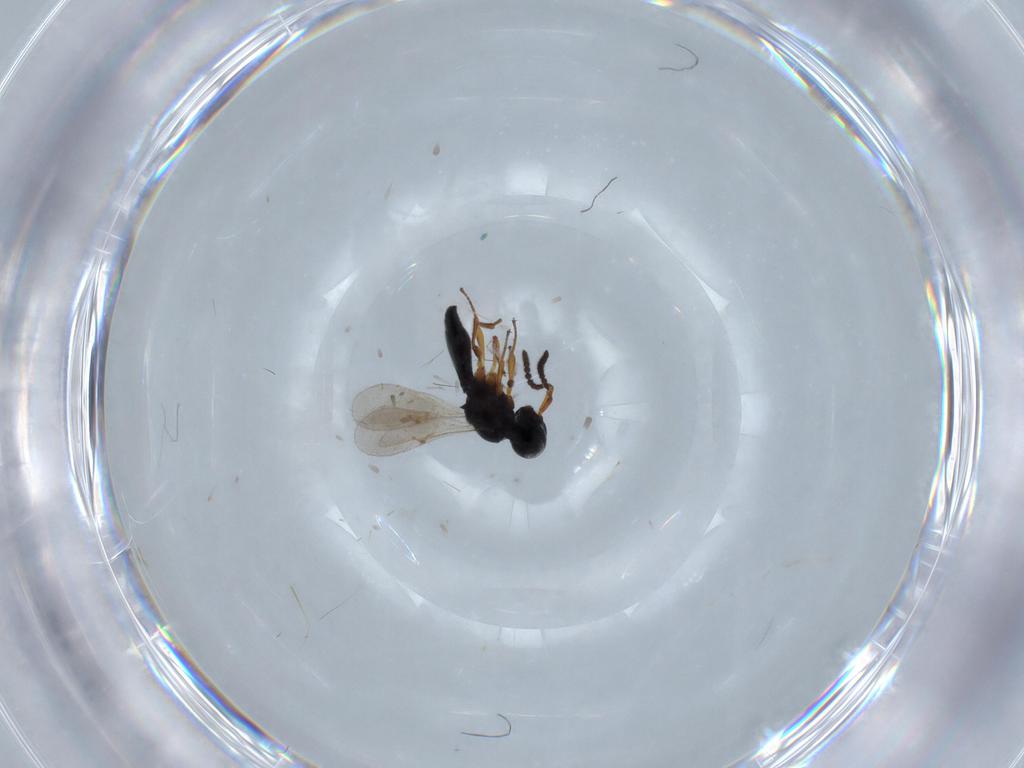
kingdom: Animalia
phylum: Arthropoda
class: Insecta
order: Hymenoptera
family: Scelionidae
